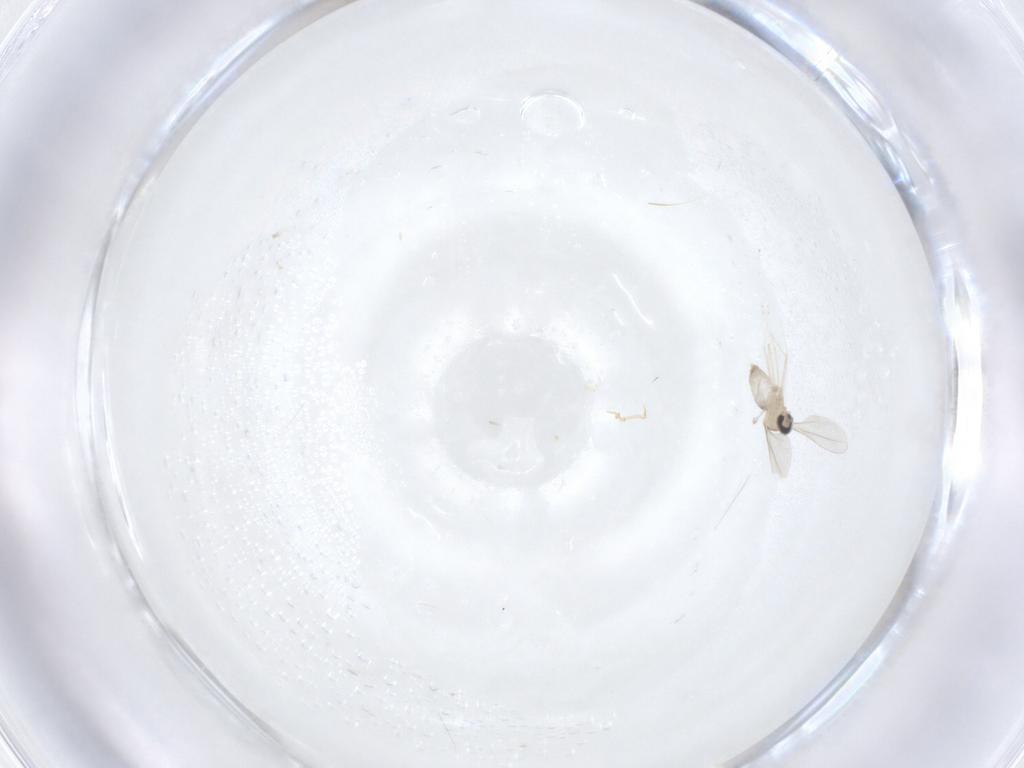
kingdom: Animalia
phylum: Arthropoda
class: Insecta
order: Diptera
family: Cecidomyiidae
